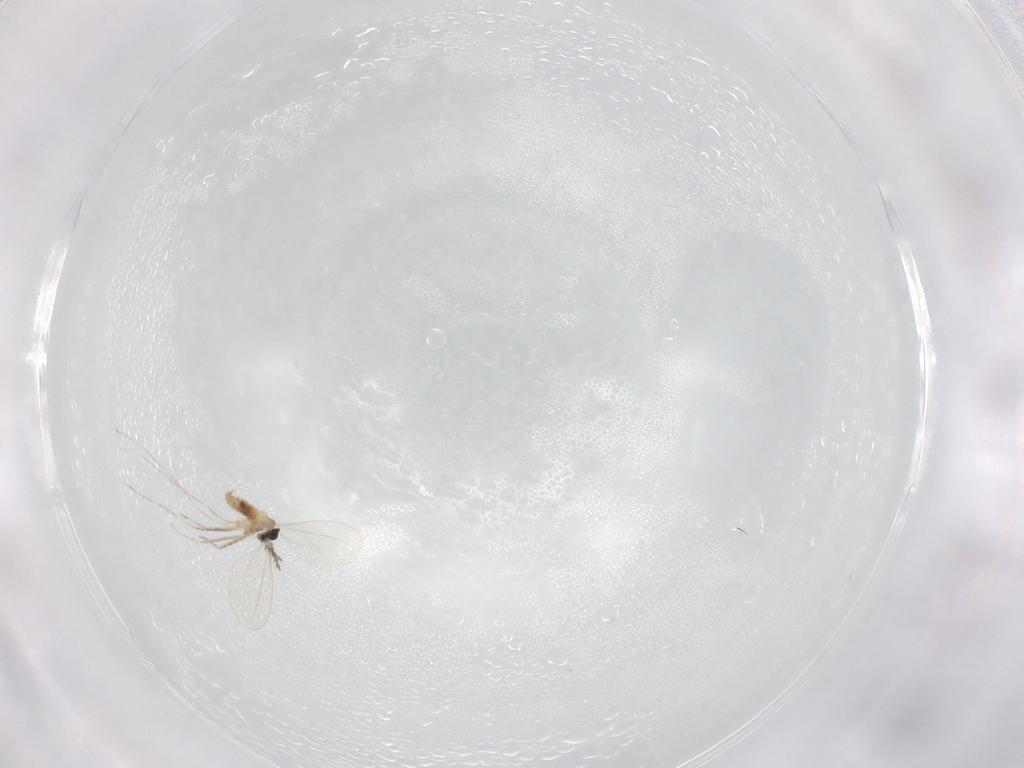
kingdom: Animalia
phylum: Arthropoda
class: Insecta
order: Diptera
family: Cecidomyiidae
